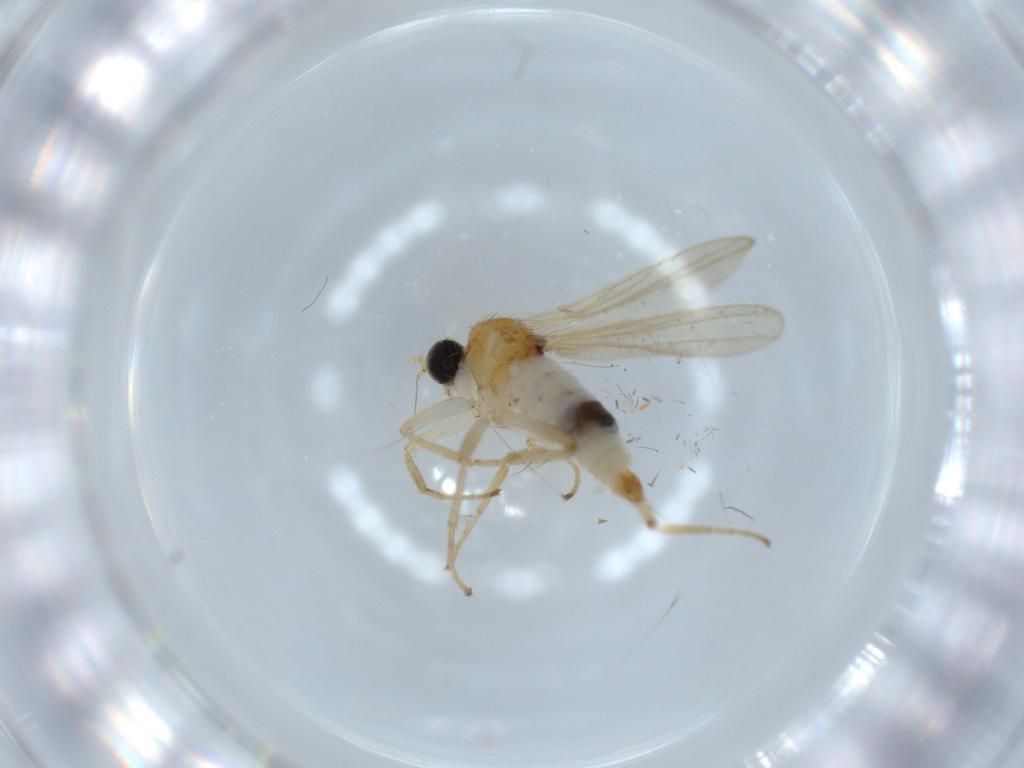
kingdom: Animalia
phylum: Arthropoda
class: Insecta
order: Diptera
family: Hybotidae
